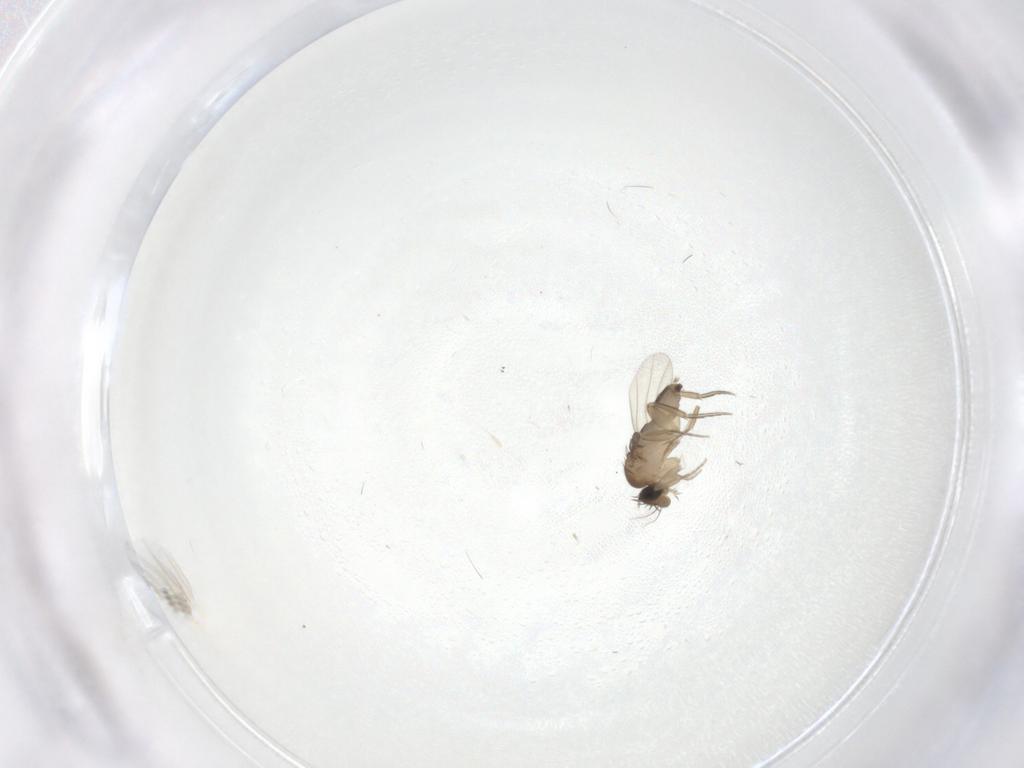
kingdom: Animalia
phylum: Arthropoda
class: Insecta
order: Diptera
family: Phoridae
